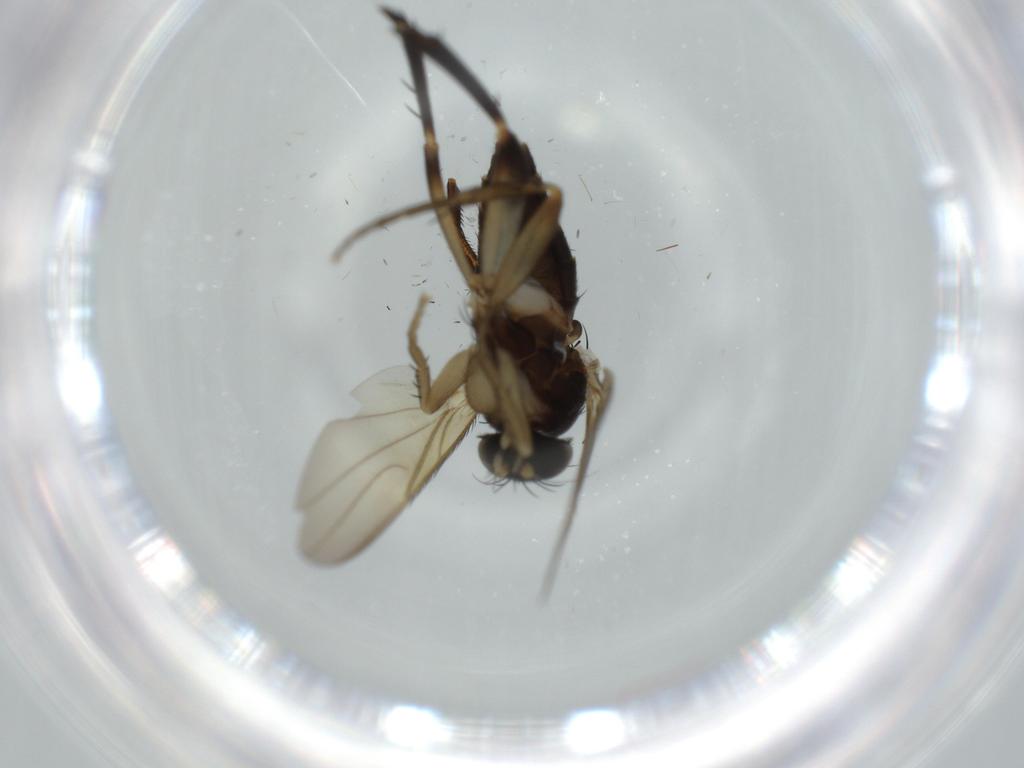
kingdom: Animalia
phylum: Arthropoda
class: Insecta
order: Diptera
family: Phoridae
